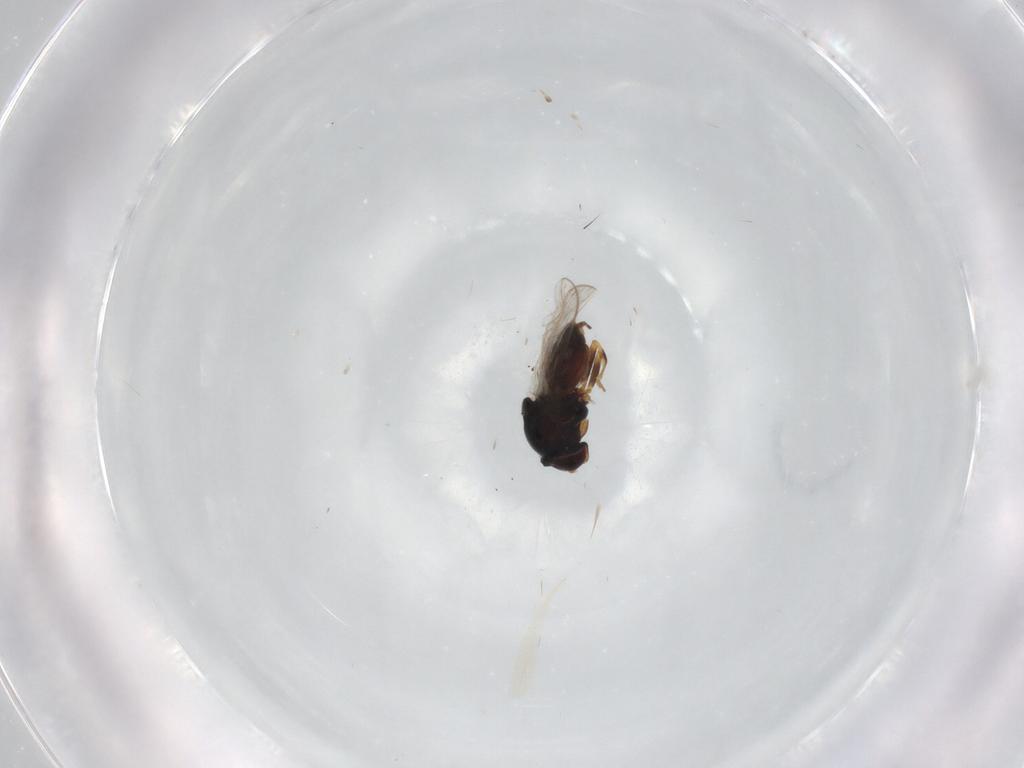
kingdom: Animalia
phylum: Arthropoda
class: Insecta
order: Diptera
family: Chloropidae
